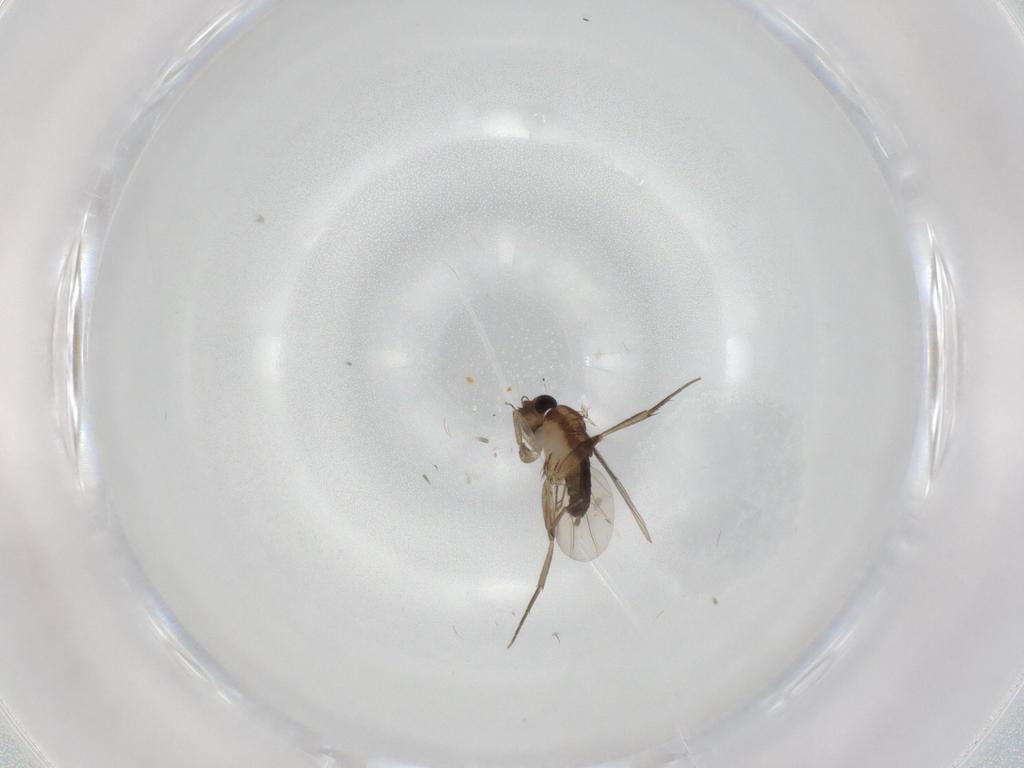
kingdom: Animalia
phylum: Arthropoda
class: Insecta
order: Diptera
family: Phoridae
